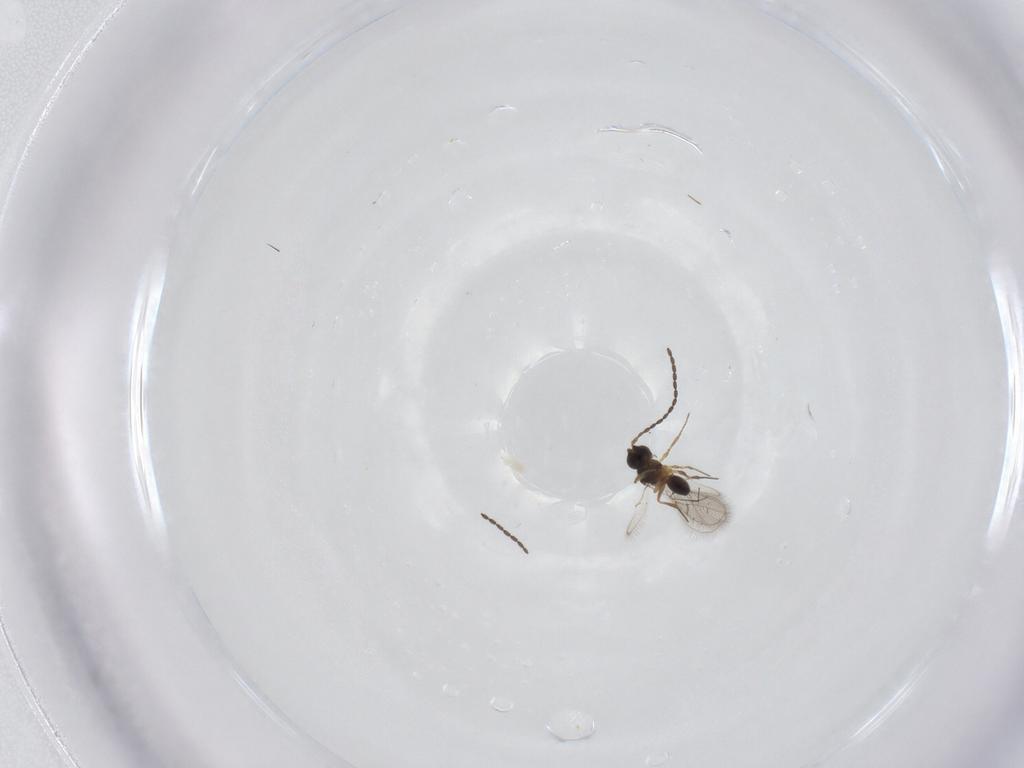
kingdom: Animalia
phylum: Arthropoda
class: Insecta
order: Hymenoptera
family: Figitidae
